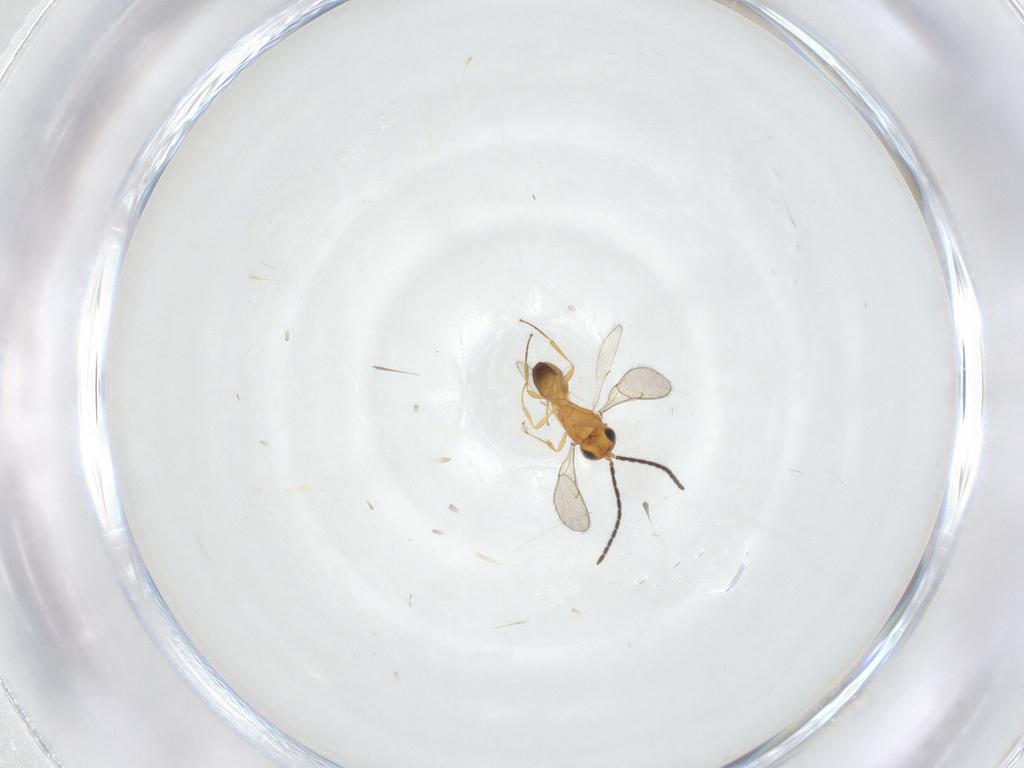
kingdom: Animalia
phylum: Arthropoda
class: Insecta
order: Hymenoptera
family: Scelionidae
